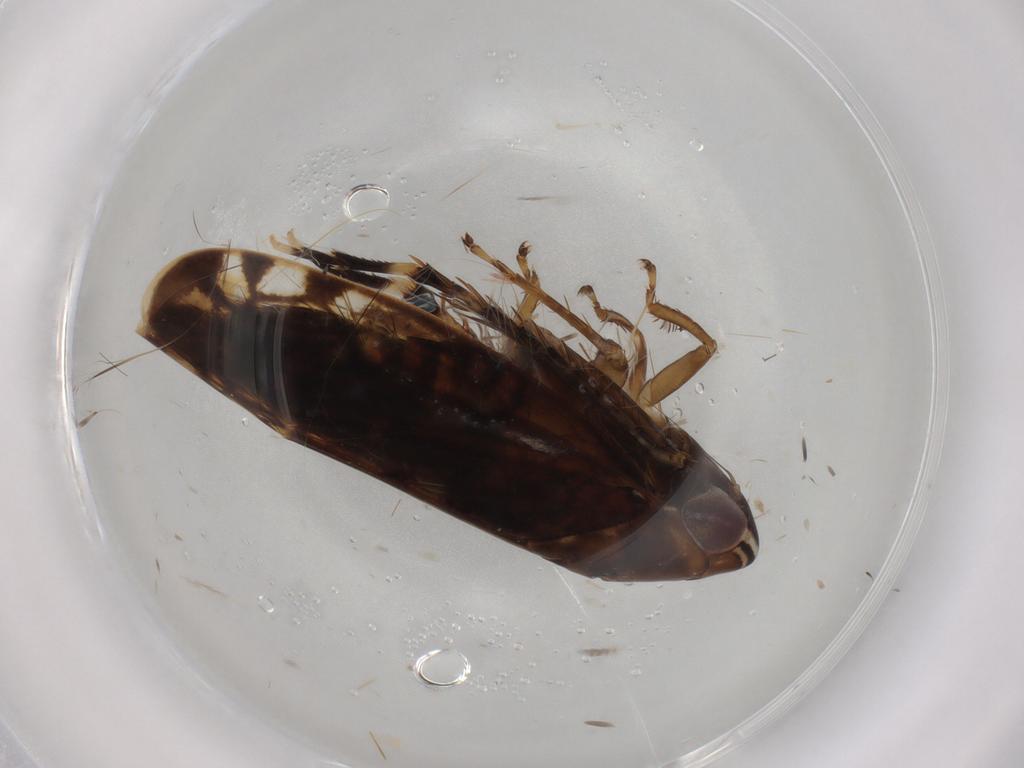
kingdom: Animalia
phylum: Arthropoda
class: Insecta
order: Hemiptera
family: Cicadellidae
